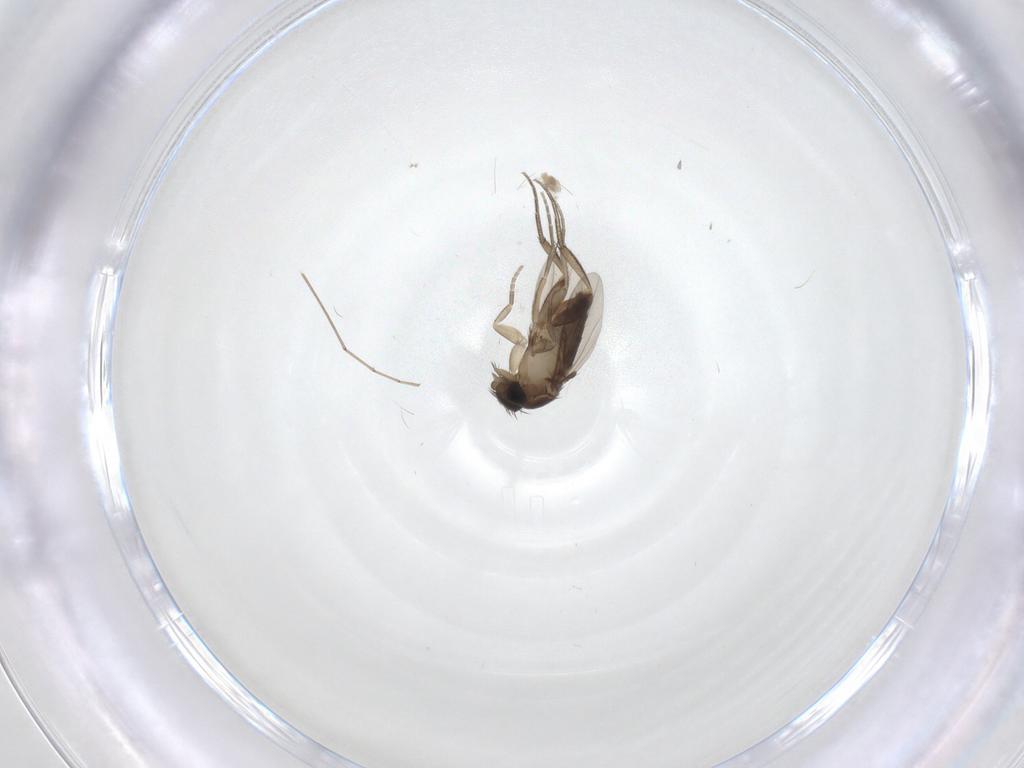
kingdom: Animalia
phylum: Arthropoda
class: Insecta
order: Diptera
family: Phoridae
